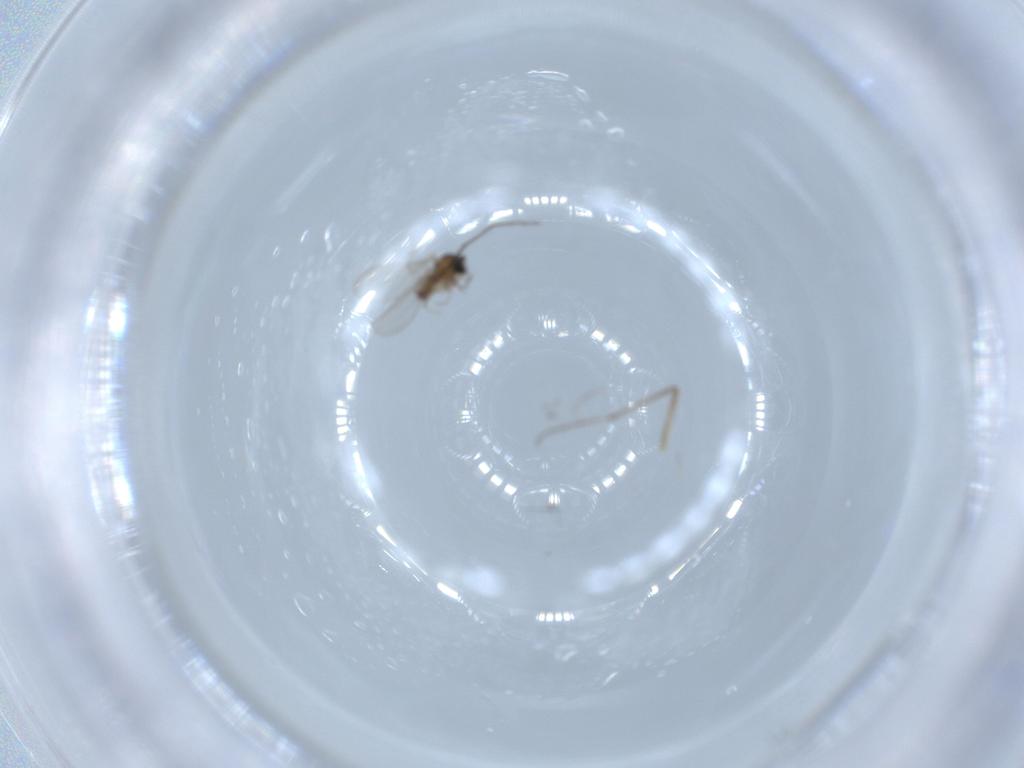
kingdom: Animalia
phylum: Arthropoda
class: Insecta
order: Diptera
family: Cecidomyiidae
